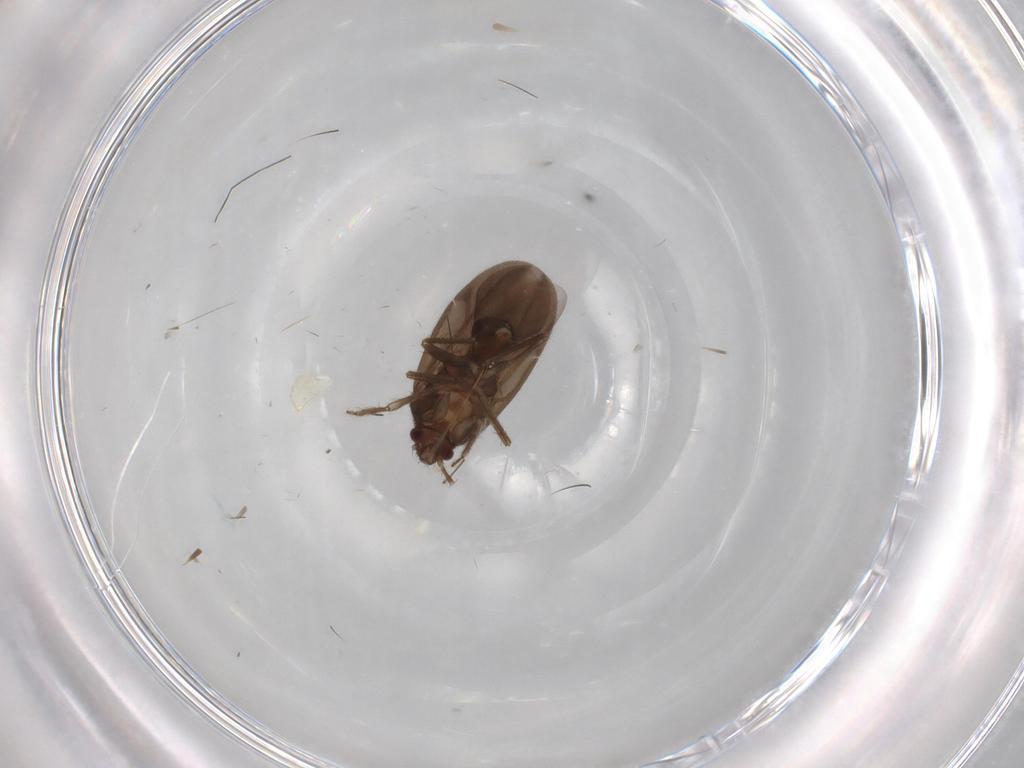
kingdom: Animalia
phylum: Arthropoda
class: Insecta
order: Hemiptera
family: Ceratocombidae
